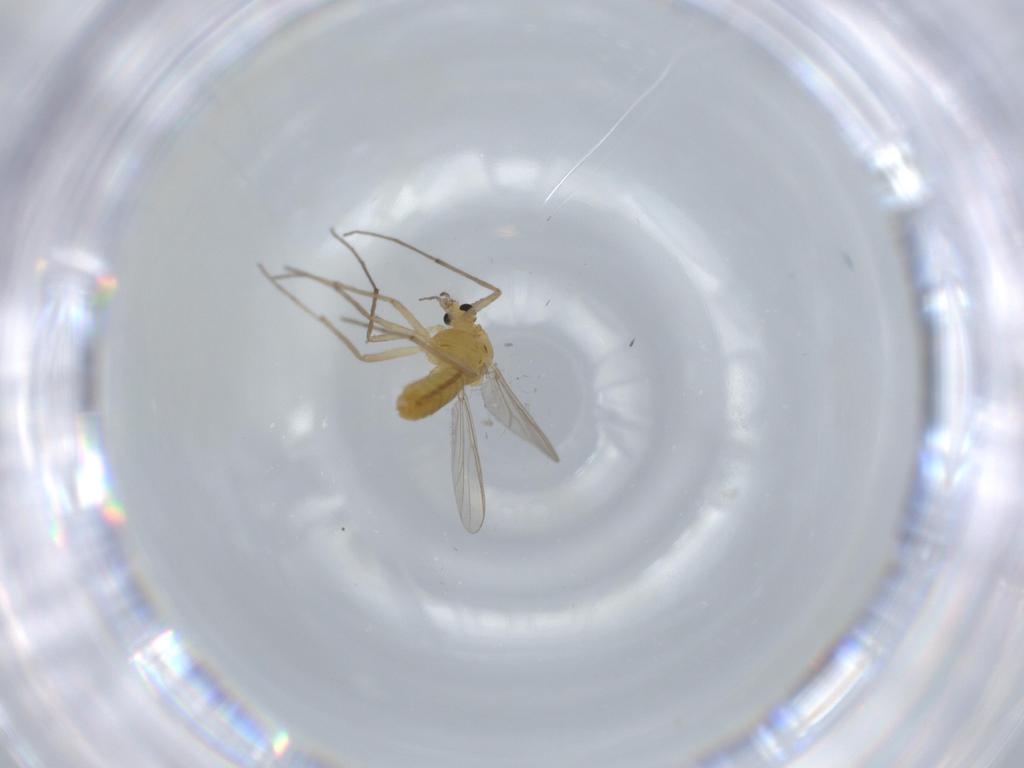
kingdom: Animalia
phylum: Arthropoda
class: Insecta
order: Diptera
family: Chironomidae
